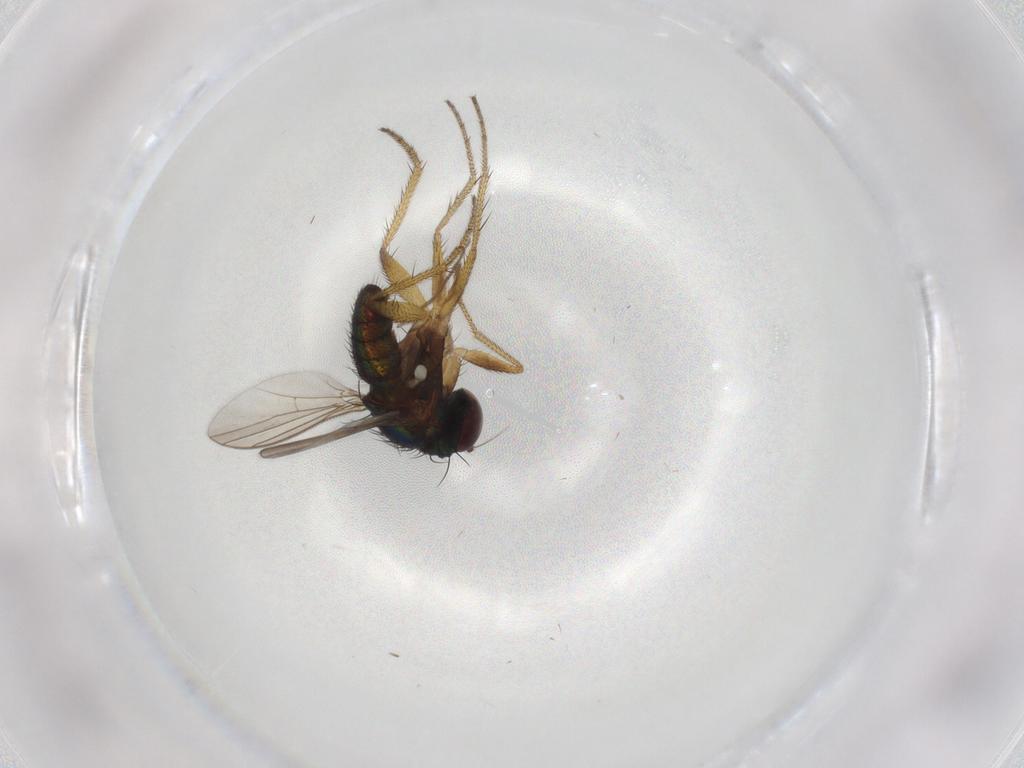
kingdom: Animalia
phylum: Arthropoda
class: Insecta
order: Diptera
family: Dolichopodidae
